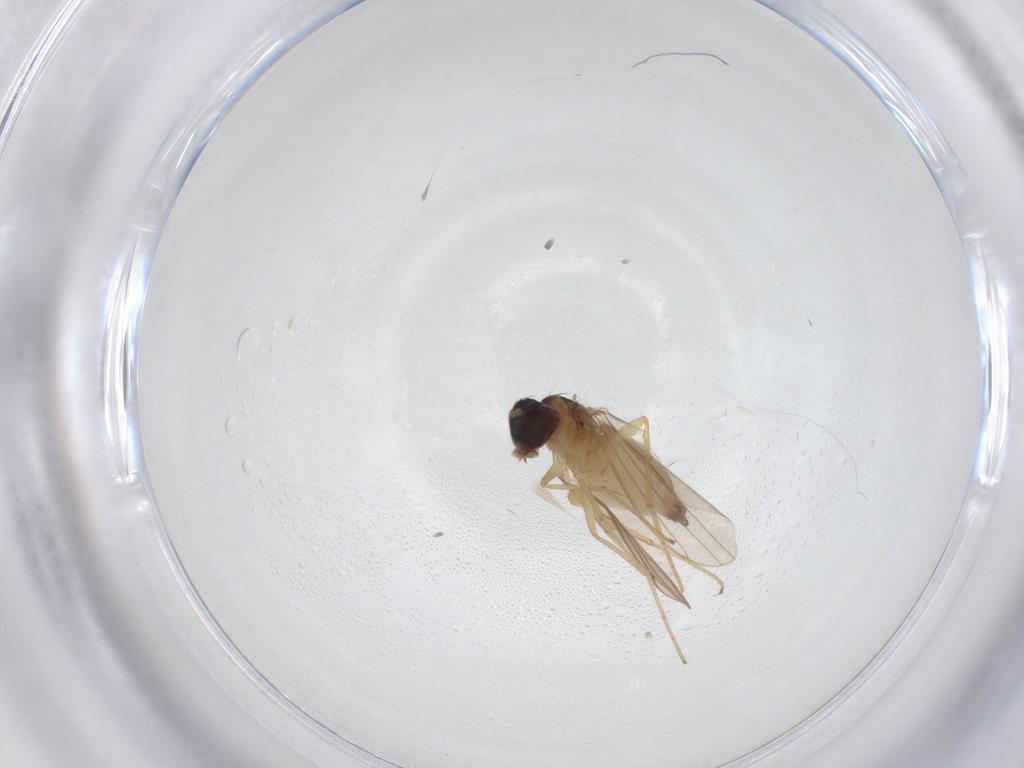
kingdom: Animalia
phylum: Arthropoda
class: Insecta
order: Diptera
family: Dolichopodidae
